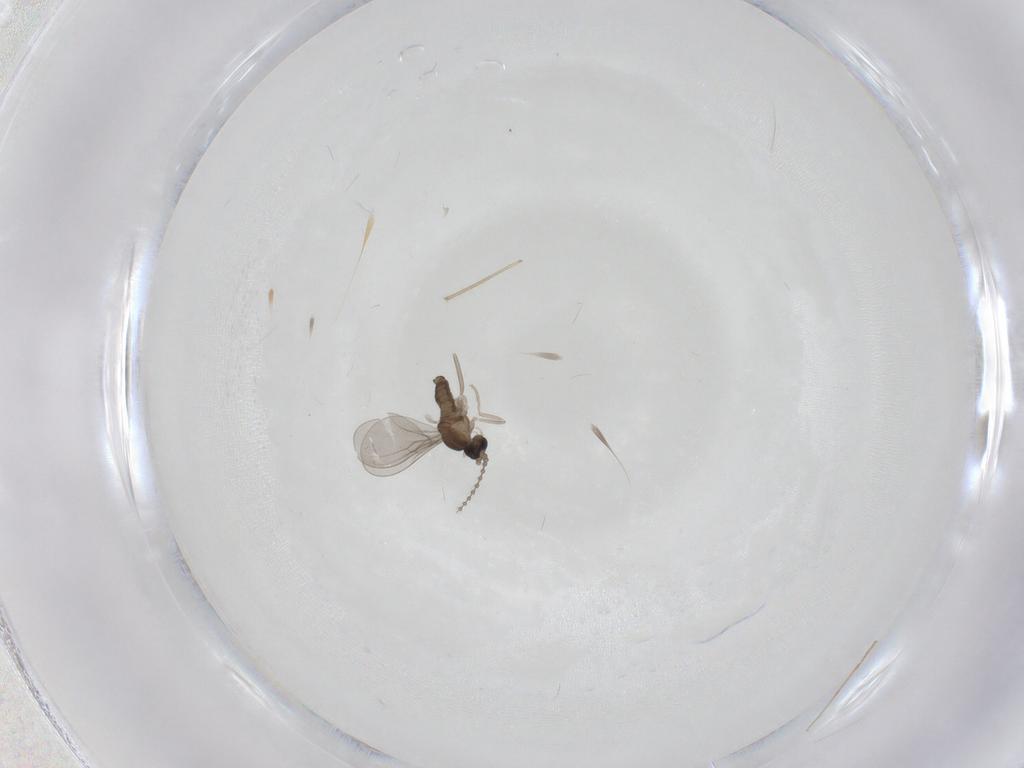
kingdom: Animalia
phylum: Arthropoda
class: Insecta
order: Diptera
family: Chironomidae
